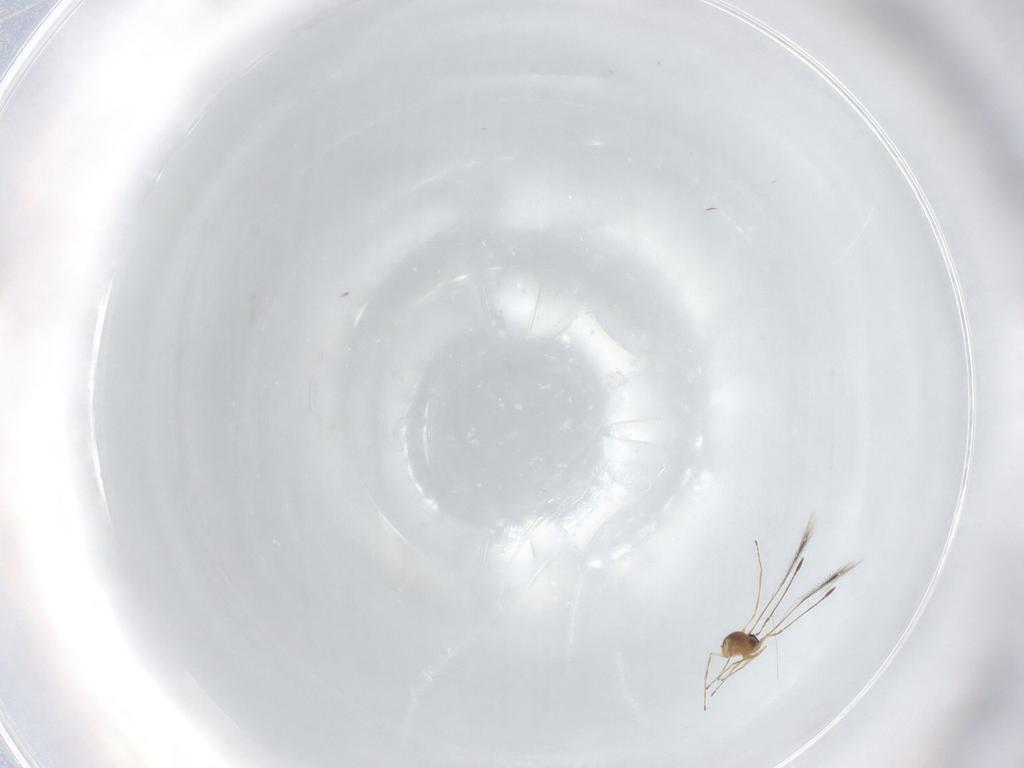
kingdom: Animalia
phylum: Arthropoda
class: Insecta
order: Hymenoptera
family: Mymaridae
